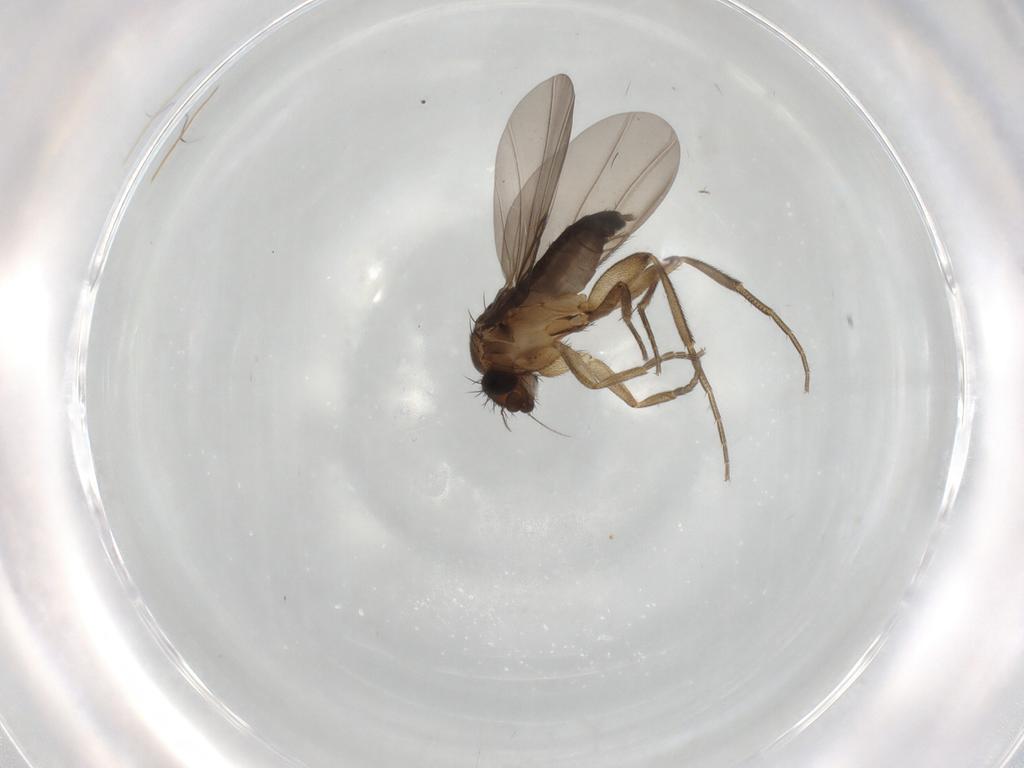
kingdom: Animalia
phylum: Arthropoda
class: Insecta
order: Diptera
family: Phoridae
